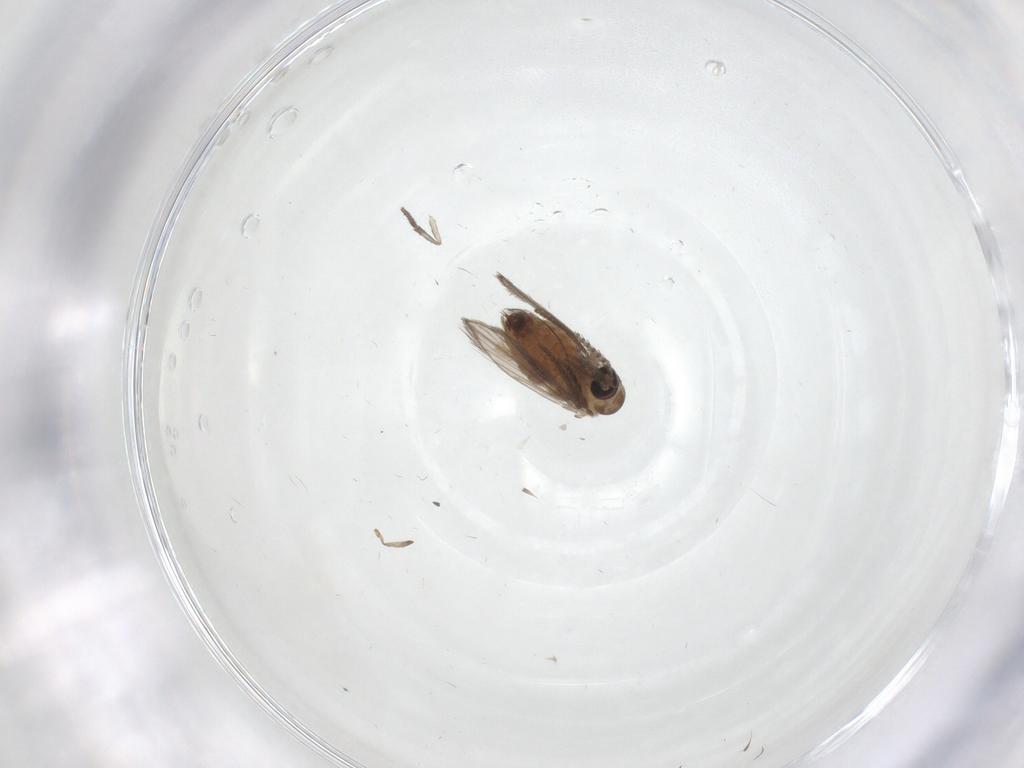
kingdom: Animalia
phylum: Arthropoda
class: Insecta
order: Diptera
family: Psychodidae
